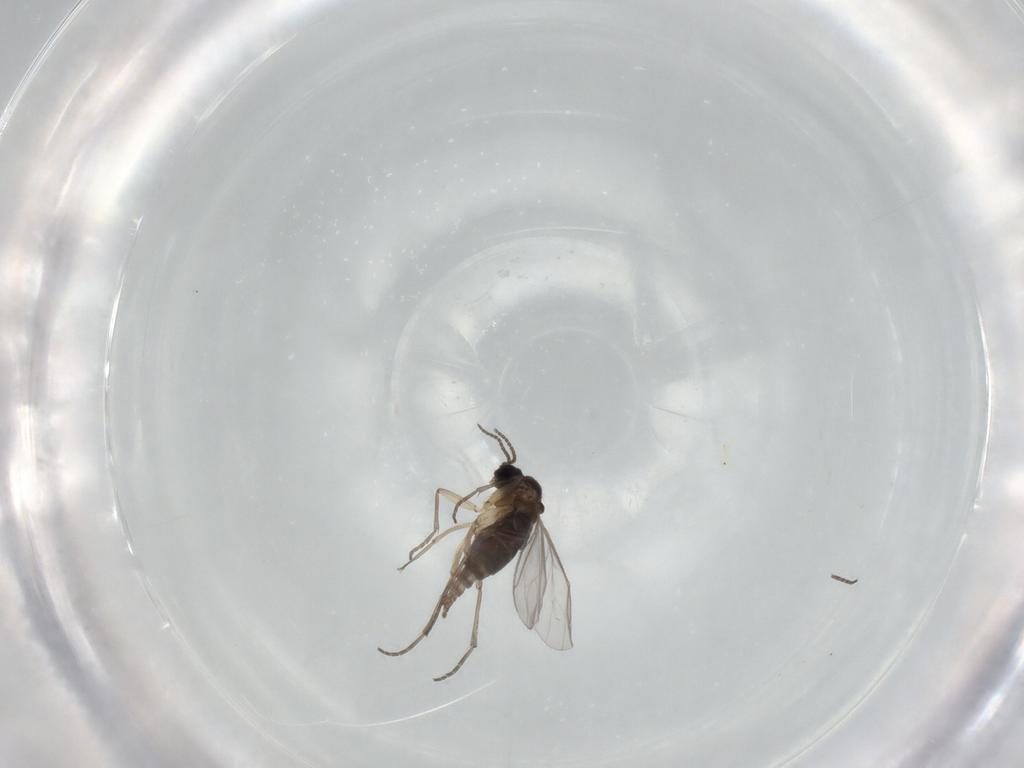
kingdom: Animalia
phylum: Arthropoda
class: Insecta
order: Diptera
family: Sciaridae
